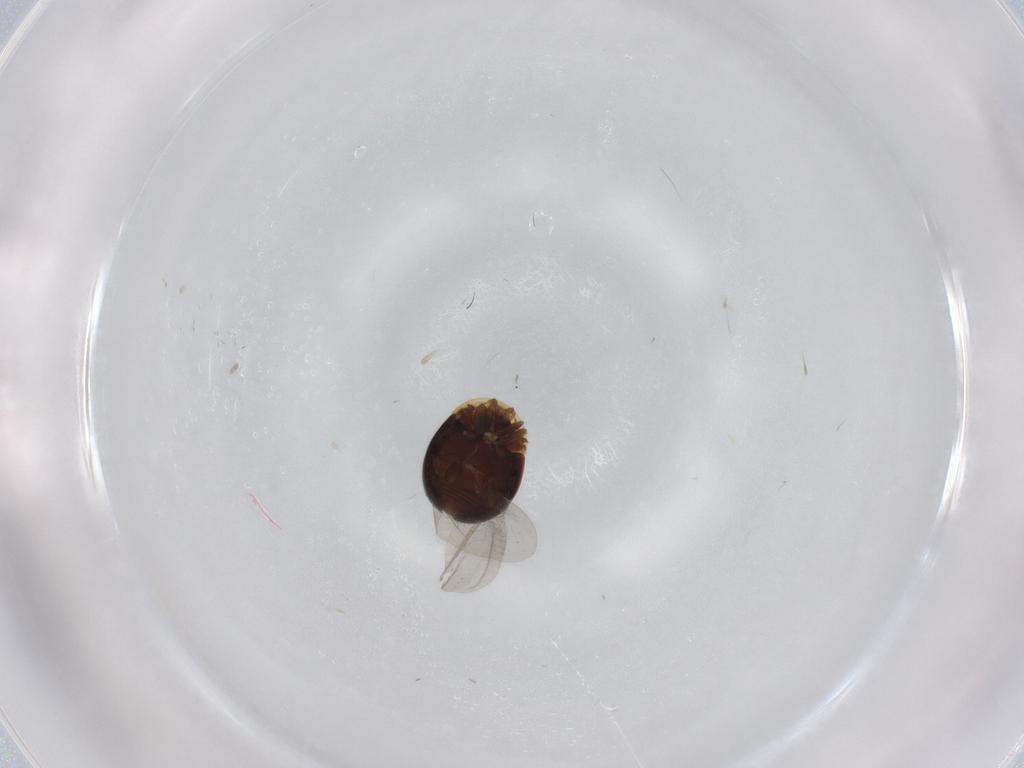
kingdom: Animalia
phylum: Arthropoda
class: Insecta
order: Coleoptera
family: Corylophidae
